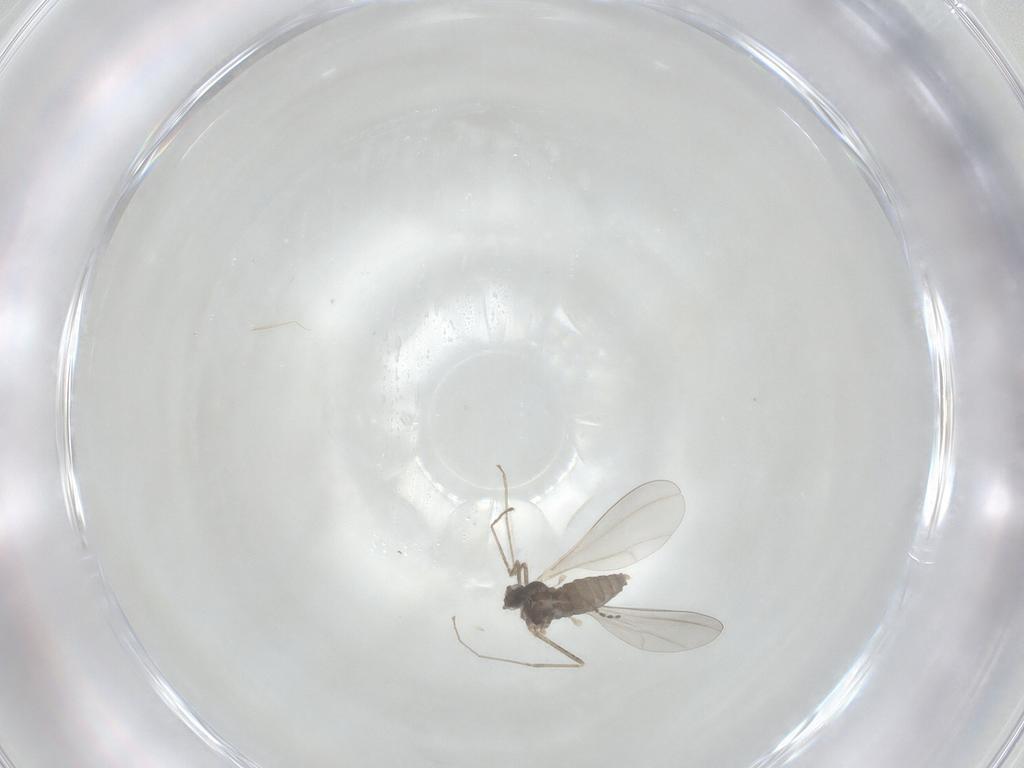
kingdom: Animalia
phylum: Arthropoda
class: Insecta
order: Diptera
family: Cecidomyiidae
